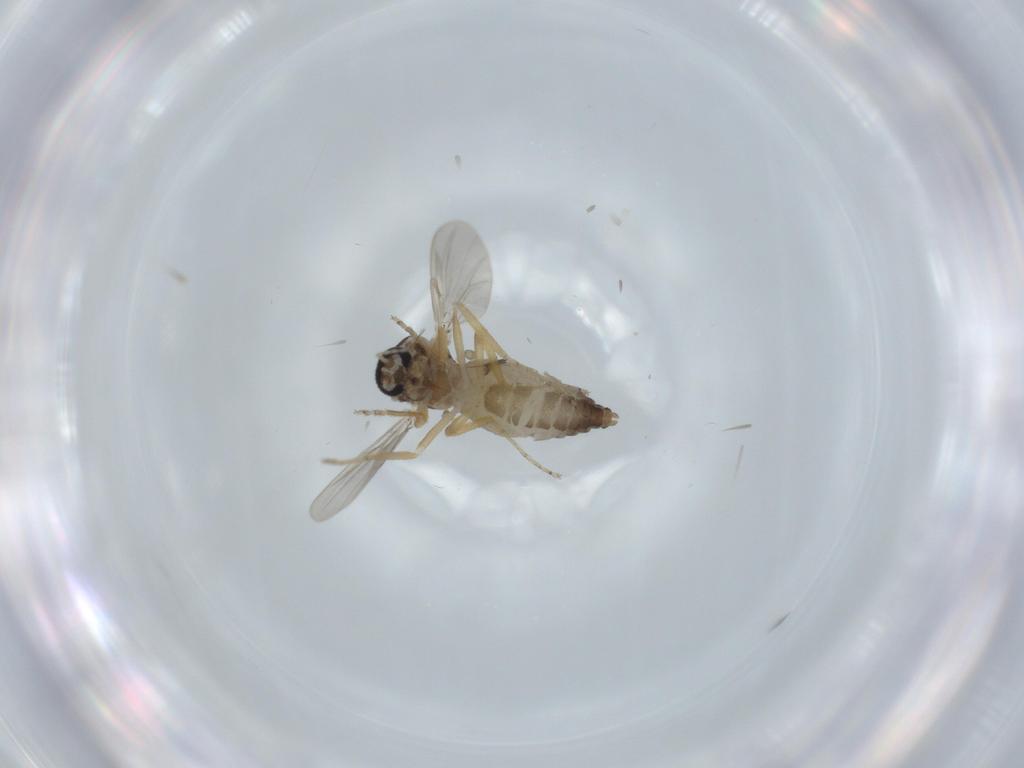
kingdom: Animalia
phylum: Arthropoda
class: Insecta
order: Diptera
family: Ceratopogonidae
